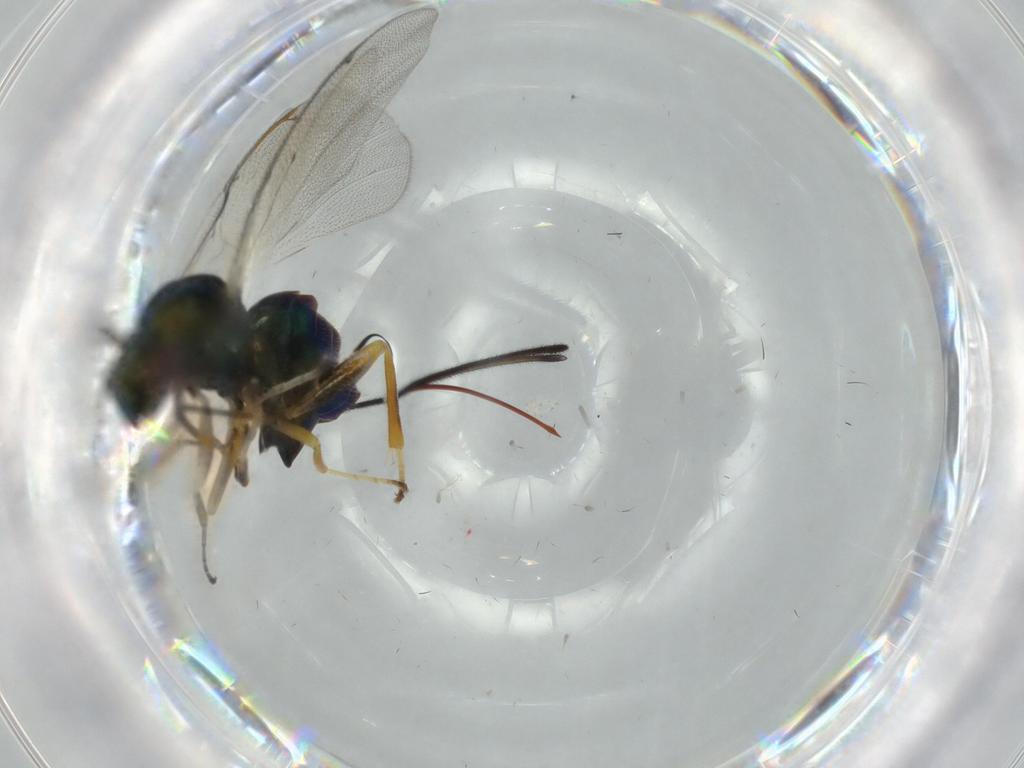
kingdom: Animalia
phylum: Arthropoda
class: Insecta
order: Hymenoptera
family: Torymidae
